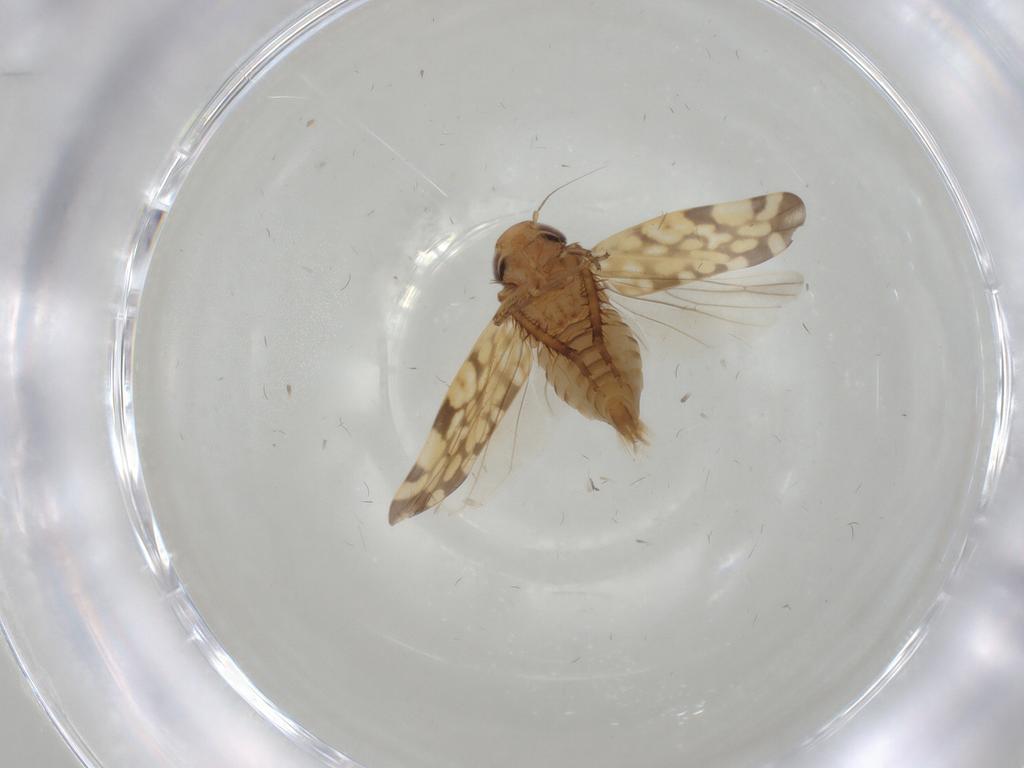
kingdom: Animalia
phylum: Arthropoda
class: Insecta
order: Hemiptera
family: Cicadellidae
